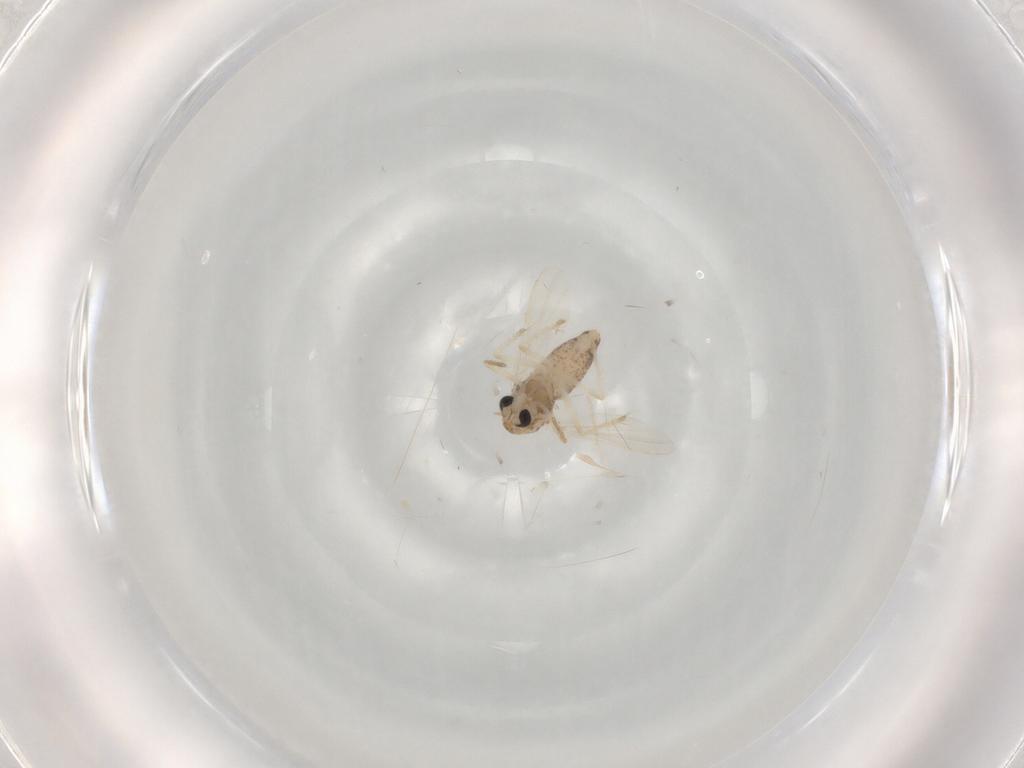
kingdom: Animalia
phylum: Arthropoda
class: Insecta
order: Diptera
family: Chironomidae
